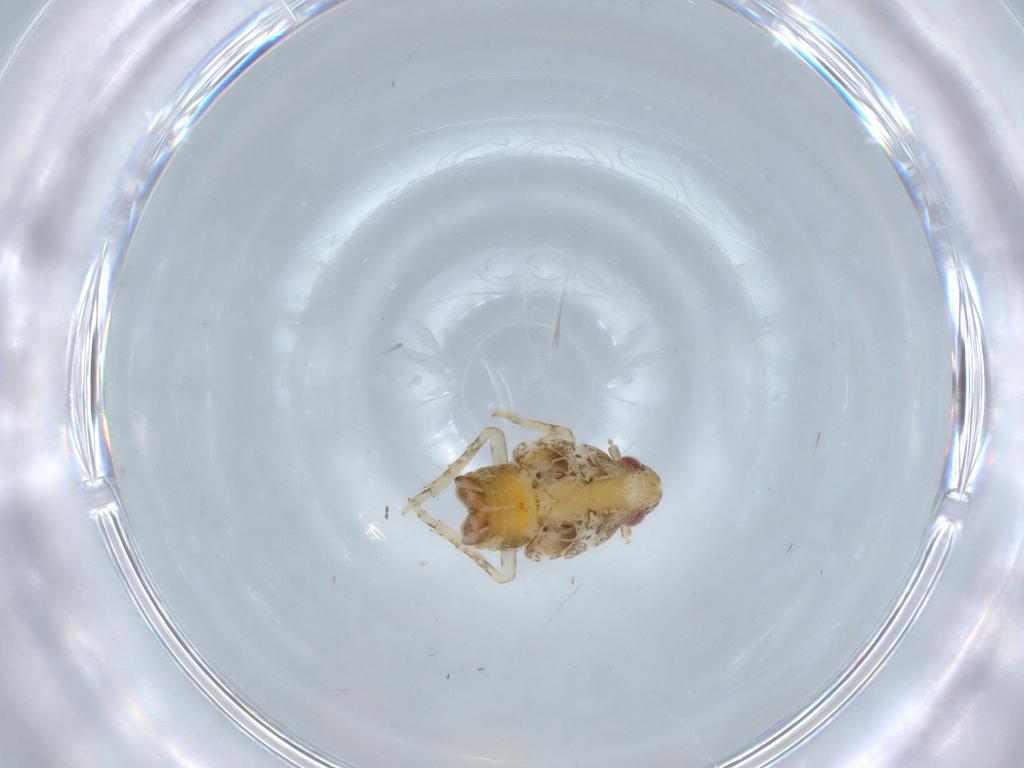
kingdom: Animalia
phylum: Arthropoda
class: Insecta
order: Hemiptera
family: Flatidae
